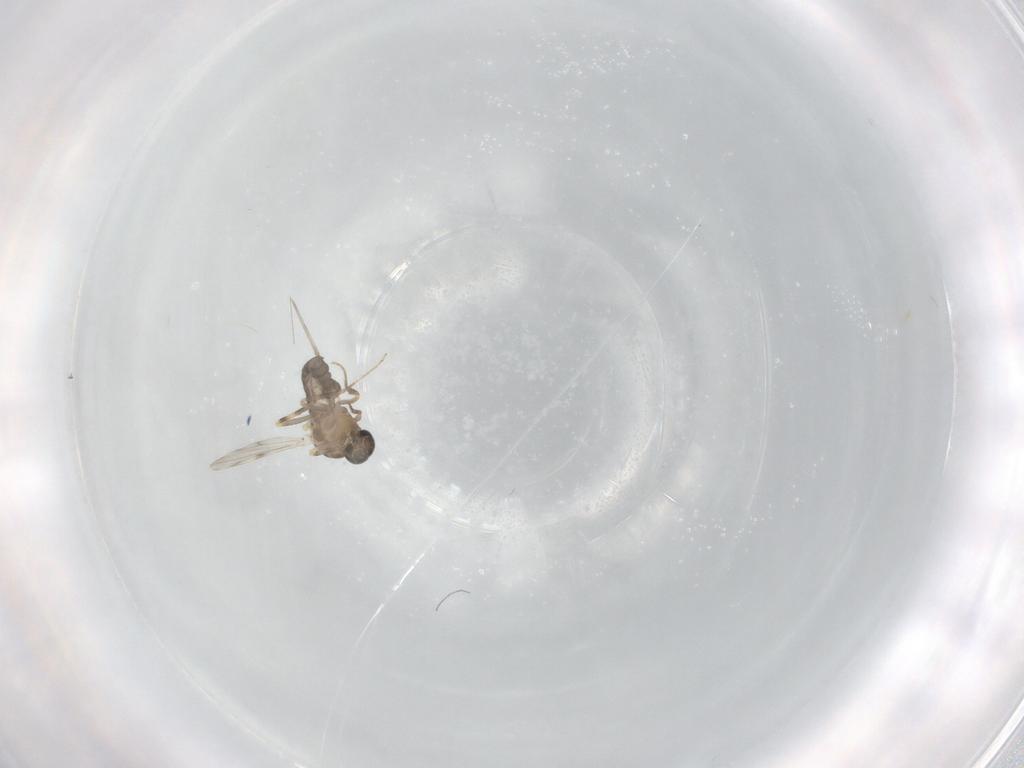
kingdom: Animalia
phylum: Arthropoda
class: Insecta
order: Diptera
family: Ceratopogonidae
